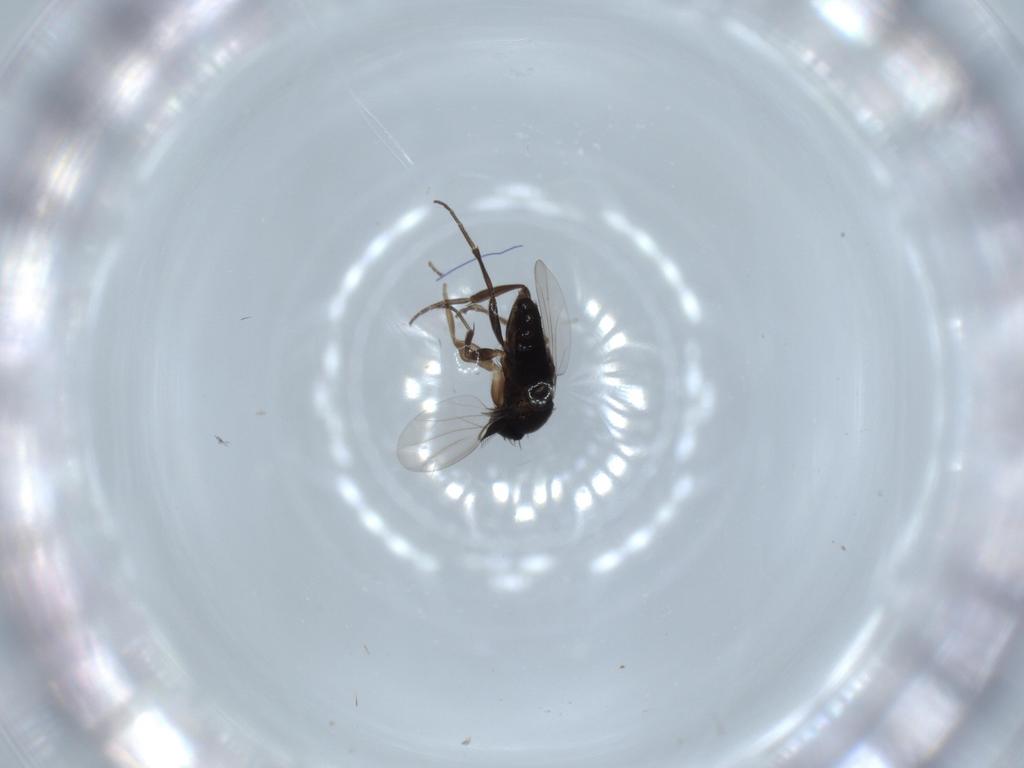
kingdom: Animalia
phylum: Arthropoda
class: Insecta
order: Diptera
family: Phoridae
